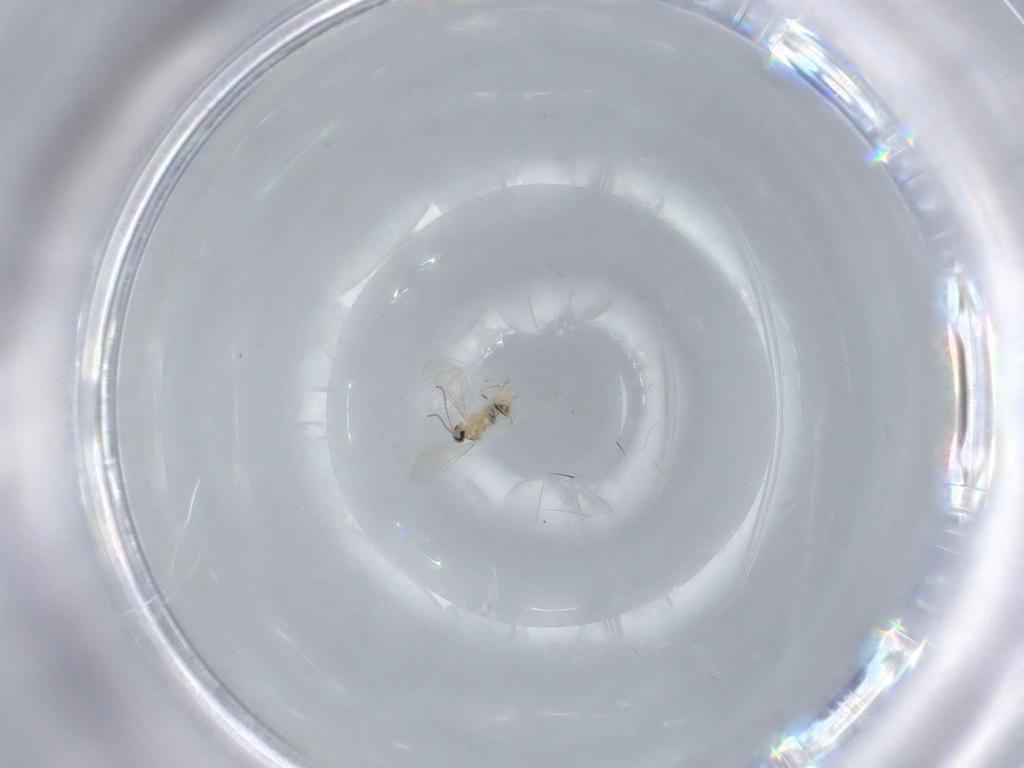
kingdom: Animalia
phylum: Arthropoda
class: Insecta
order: Diptera
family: Cecidomyiidae
